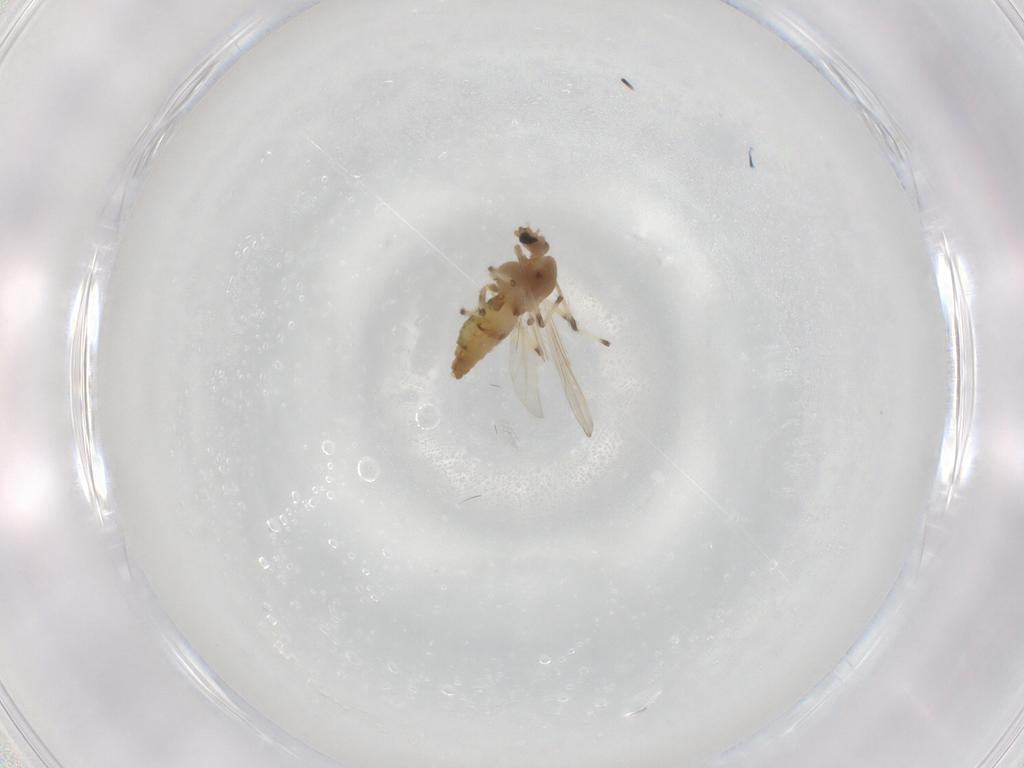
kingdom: Animalia
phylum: Arthropoda
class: Insecta
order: Diptera
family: Chironomidae
